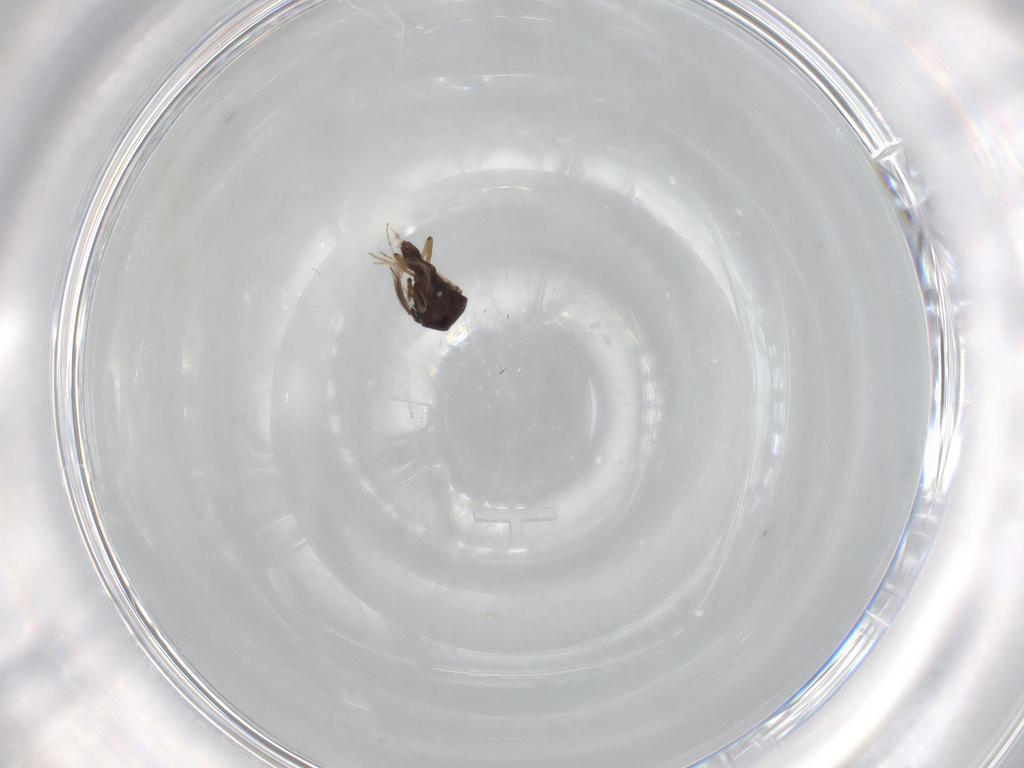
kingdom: Animalia
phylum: Arthropoda
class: Insecta
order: Diptera
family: Ceratopogonidae
